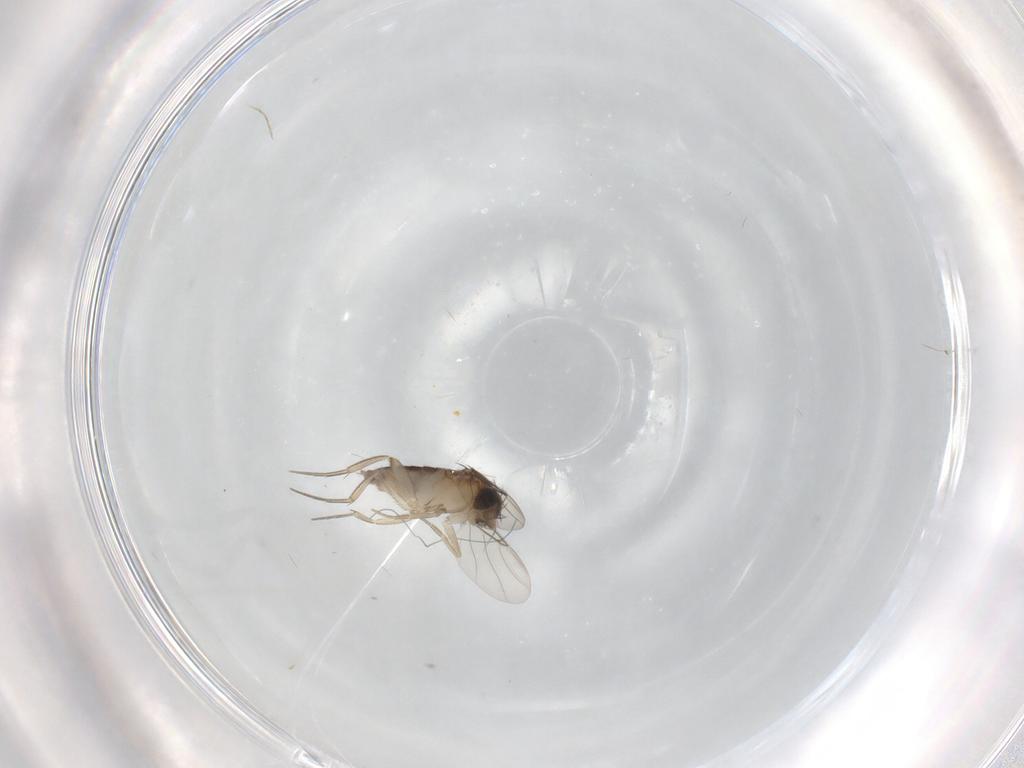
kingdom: Animalia
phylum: Arthropoda
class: Insecta
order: Diptera
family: Phoridae
